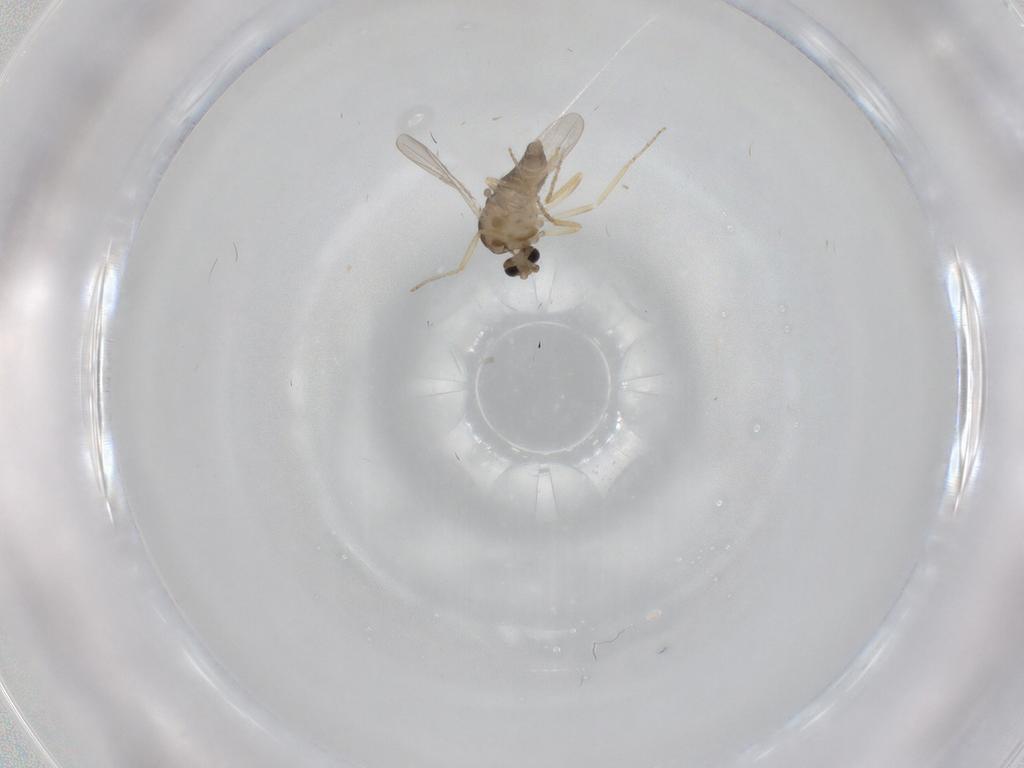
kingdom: Animalia
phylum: Arthropoda
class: Insecta
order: Diptera
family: Ceratopogonidae
